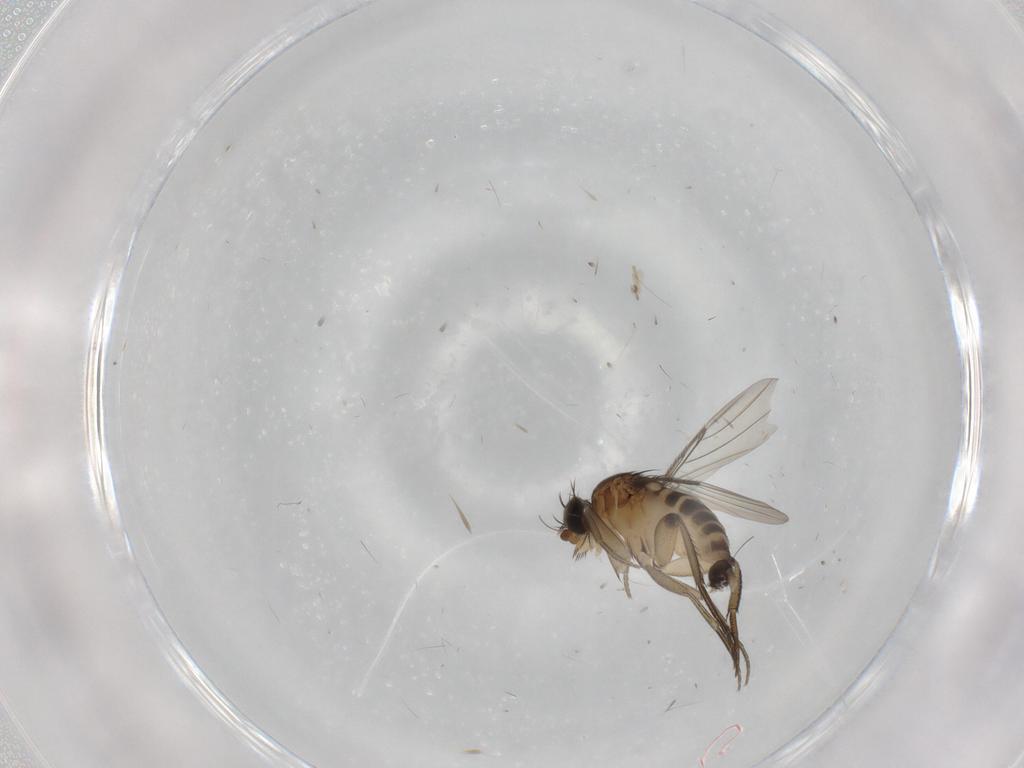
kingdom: Animalia
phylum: Arthropoda
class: Insecta
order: Diptera
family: Phoridae
